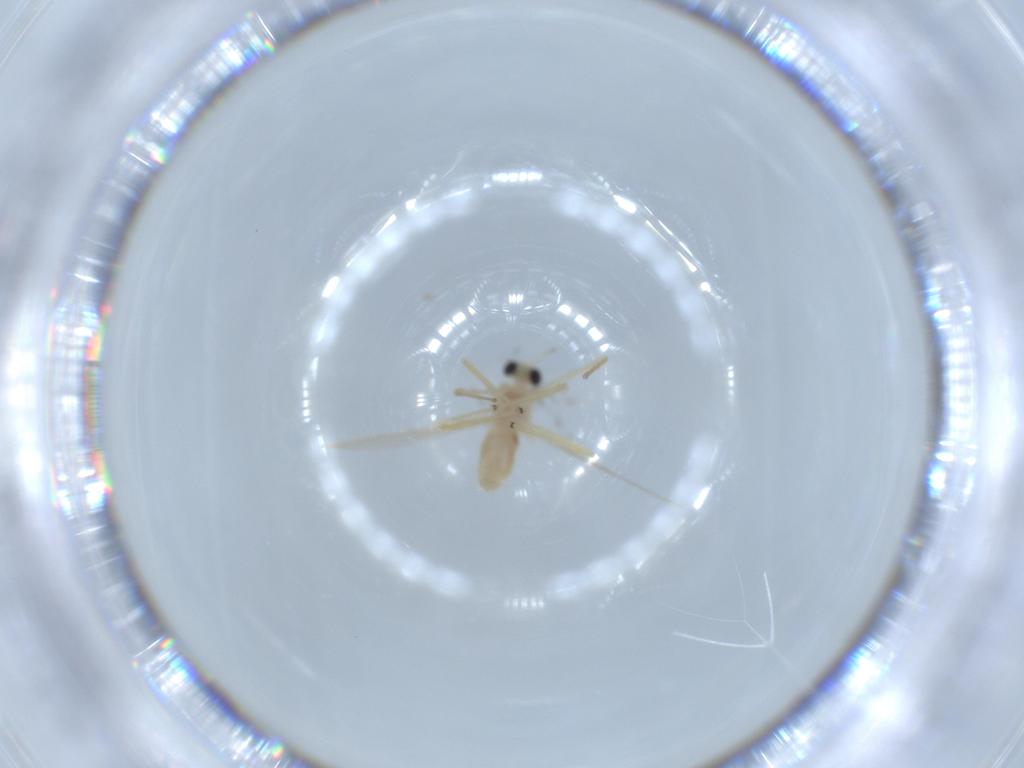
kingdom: Animalia
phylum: Arthropoda
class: Insecta
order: Diptera
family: Chironomidae
